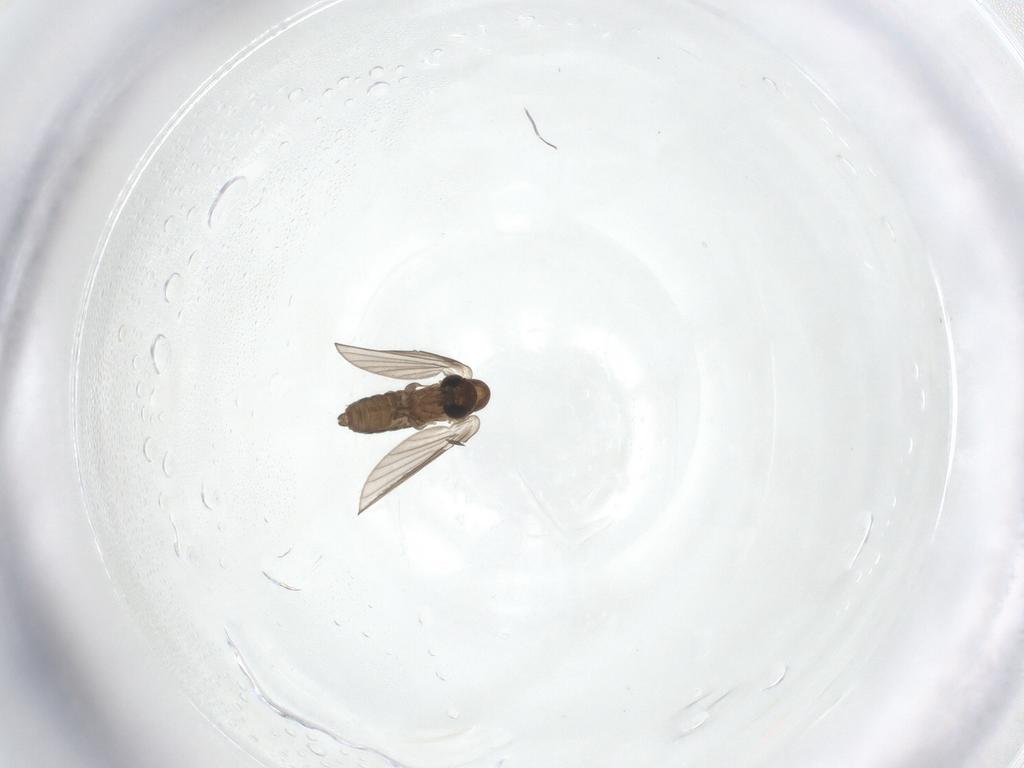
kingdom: Animalia
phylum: Arthropoda
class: Insecta
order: Diptera
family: Psychodidae
